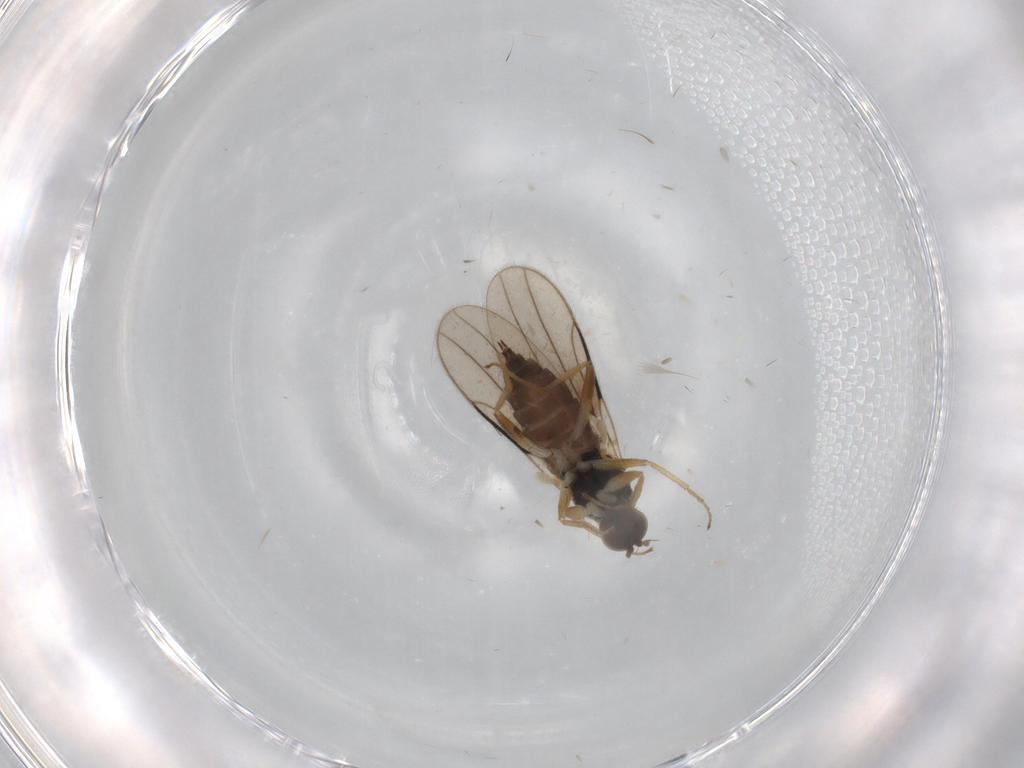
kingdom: Animalia
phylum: Arthropoda
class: Insecta
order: Diptera
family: Hybotidae
